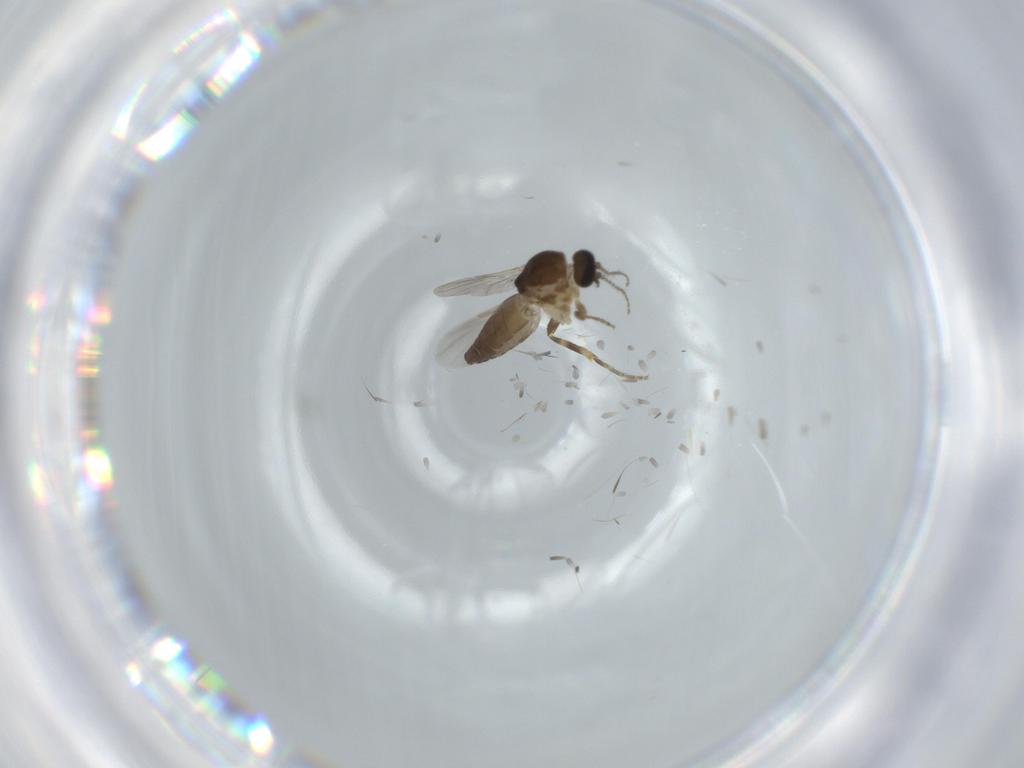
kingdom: Animalia
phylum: Arthropoda
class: Insecta
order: Diptera
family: Ceratopogonidae
